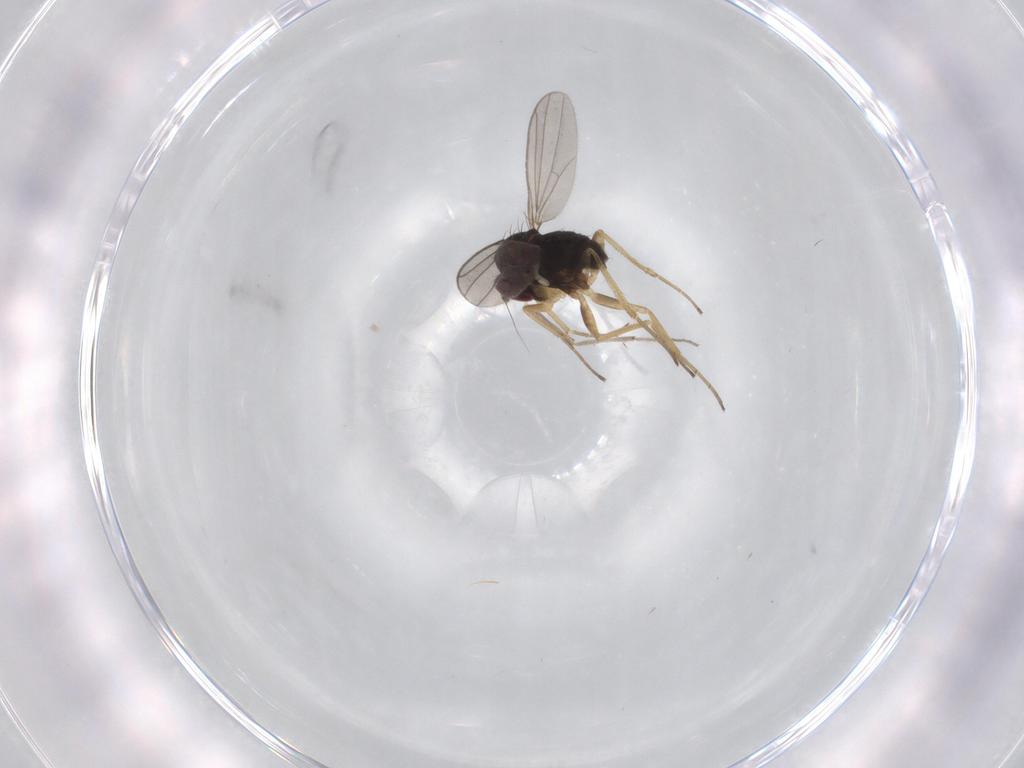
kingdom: Animalia
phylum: Arthropoda
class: Insecta
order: Diptera
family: Dolichopodidae
